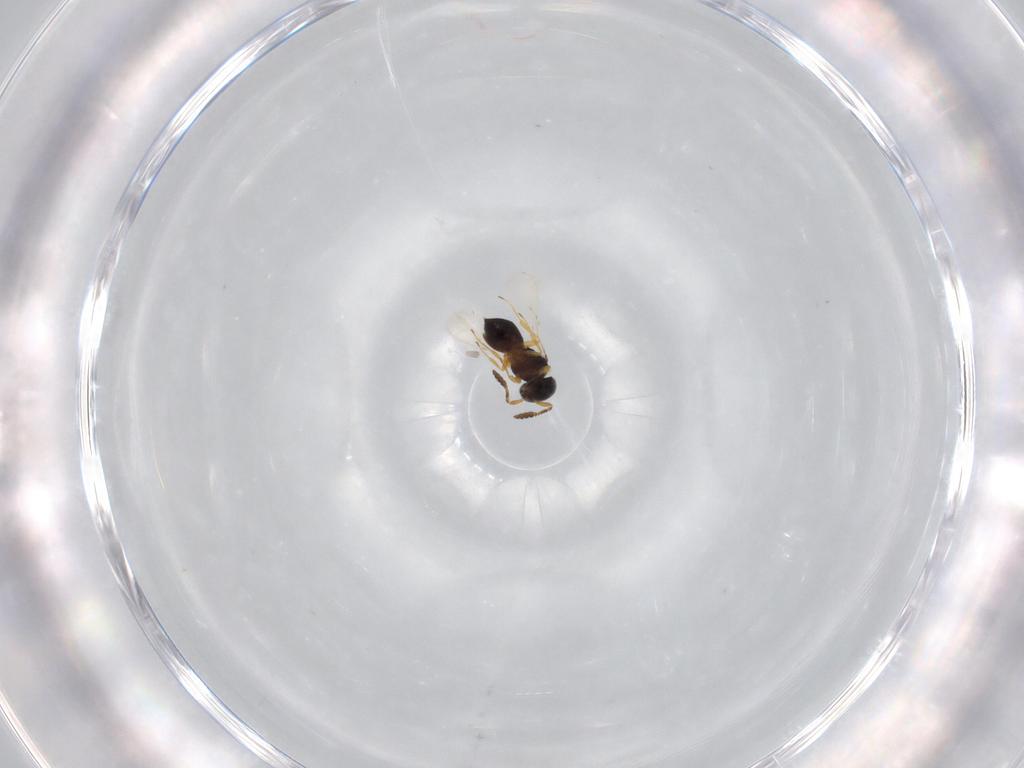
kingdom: Animalia
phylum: Arthropoda
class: Insecta
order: Hymenoptera
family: Scelionidae
